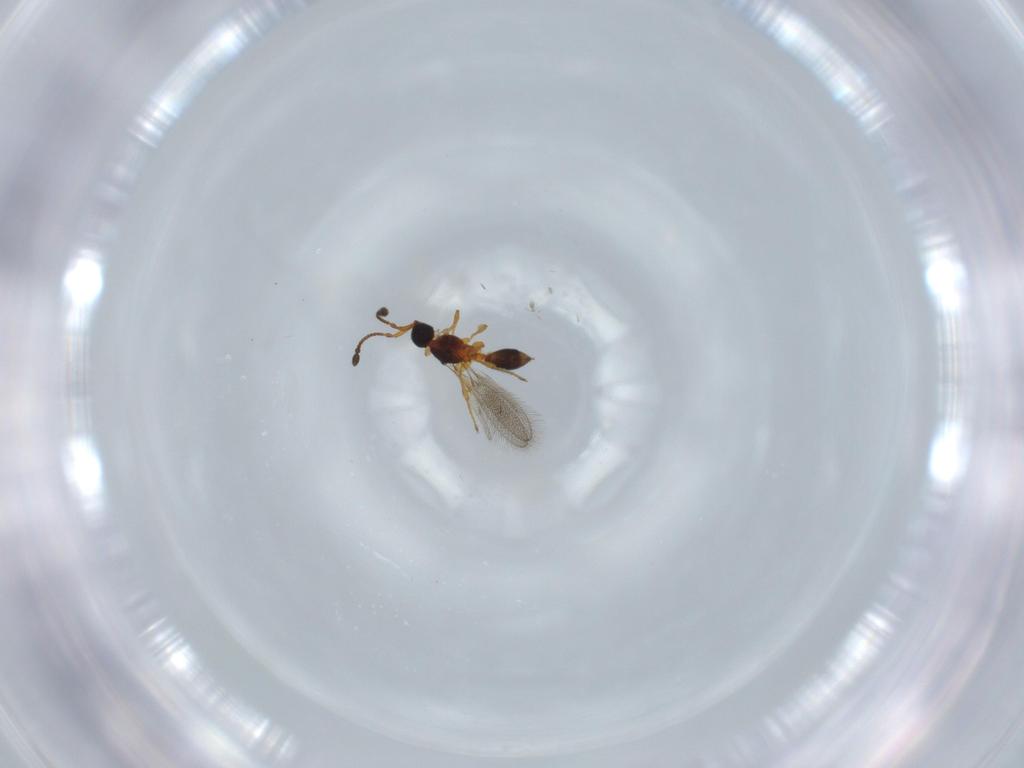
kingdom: Animalia
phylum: Arthropoda
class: Insecta
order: Hymenoptera
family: Diapriidae
